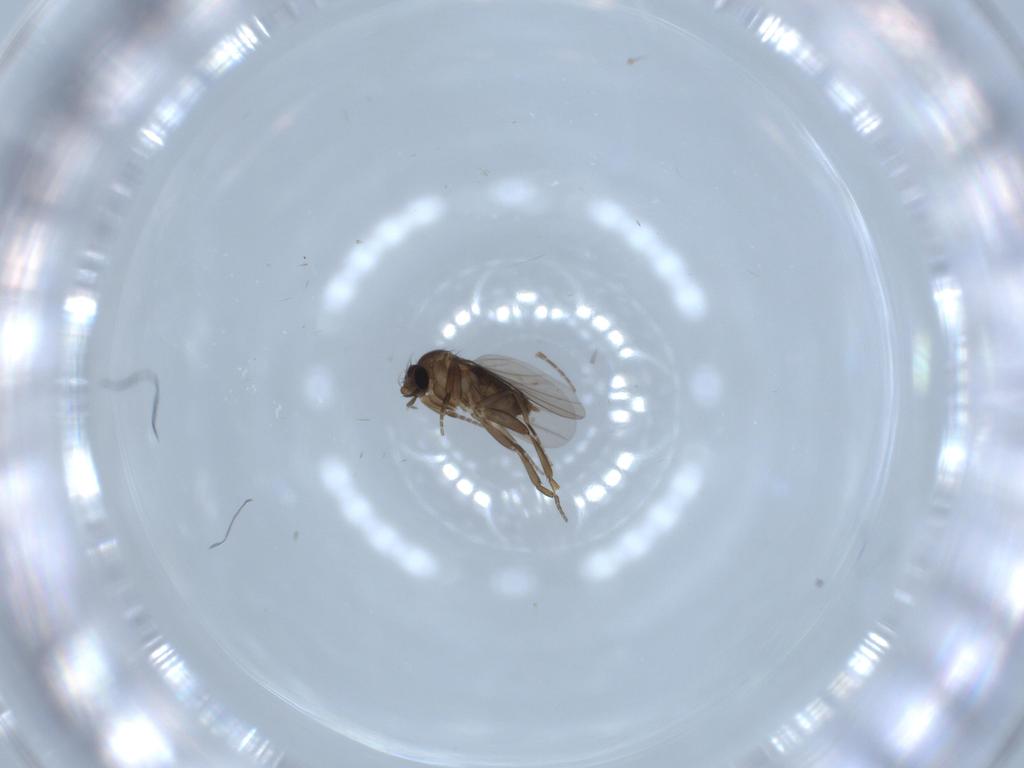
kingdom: Animalia
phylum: Arthropoda
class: Insecta
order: Diptera
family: Phoridae
